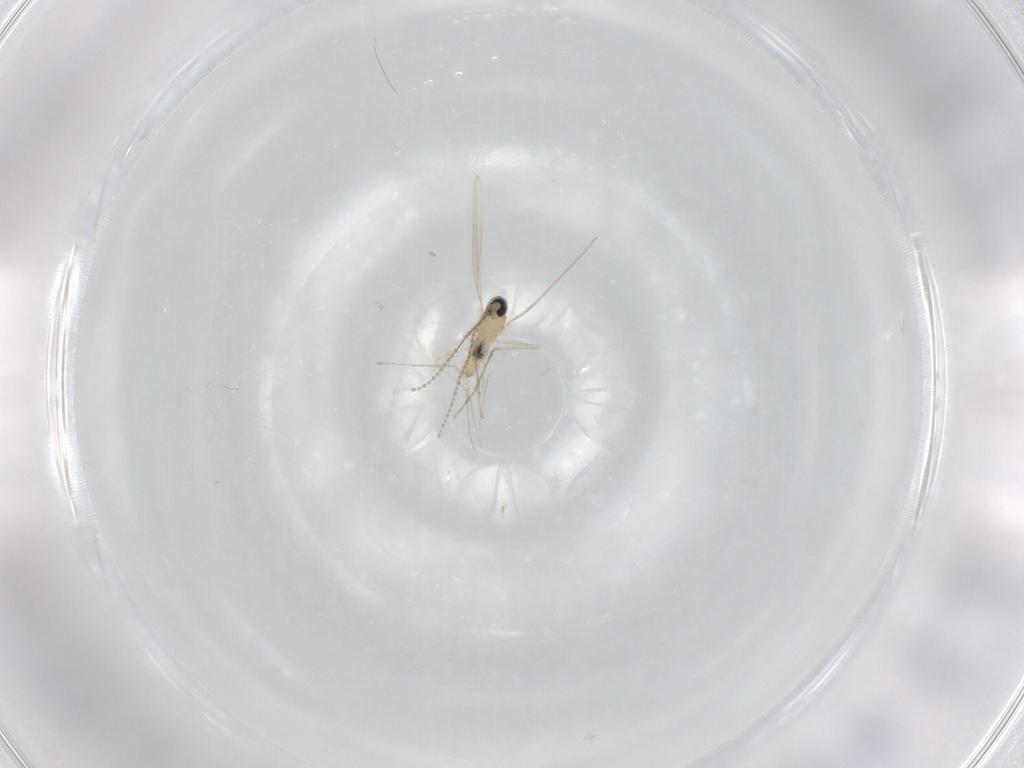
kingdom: Animalia
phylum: Arthropoda
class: Insecta
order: Diptera
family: Cecidomyiidae
